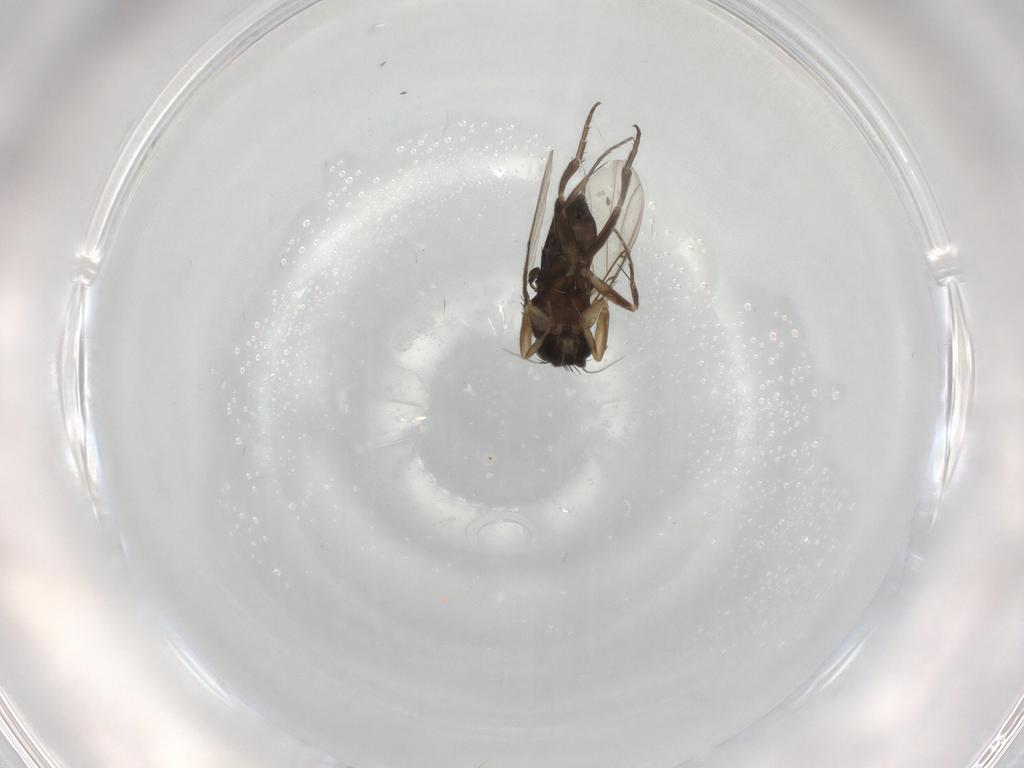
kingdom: Animalia
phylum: Arthropoda
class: Insecta
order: Diptera
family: Phoridae
